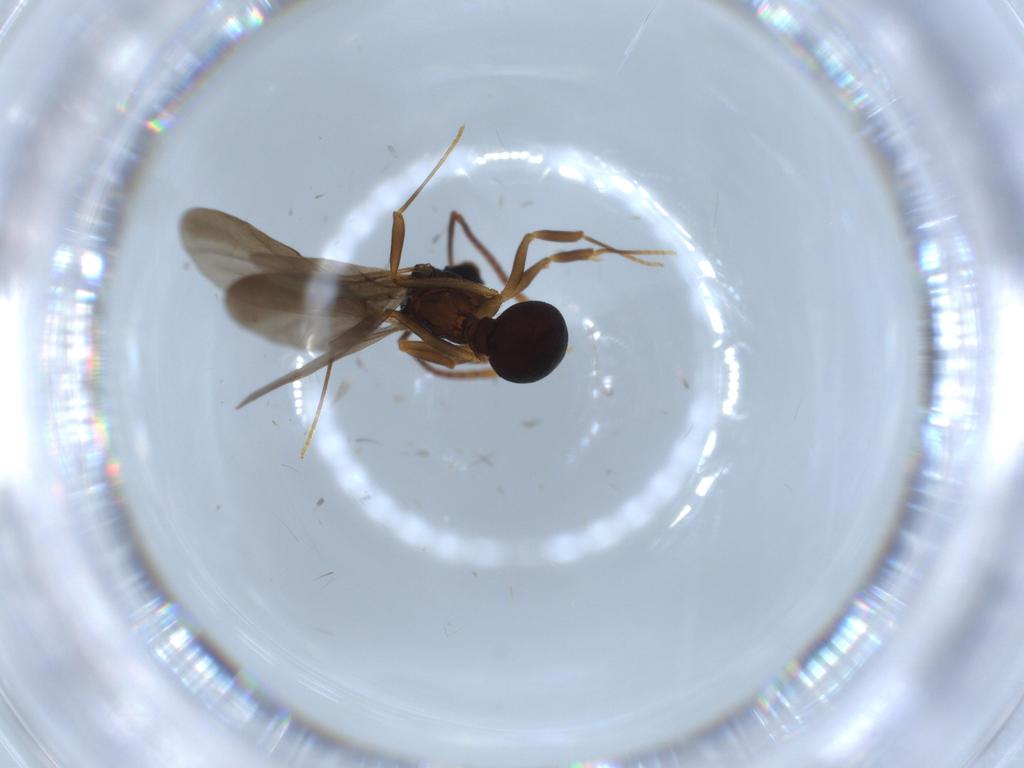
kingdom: Animalia
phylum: Arthropoda
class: Insecta
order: Hymenoptera
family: Formicidae
